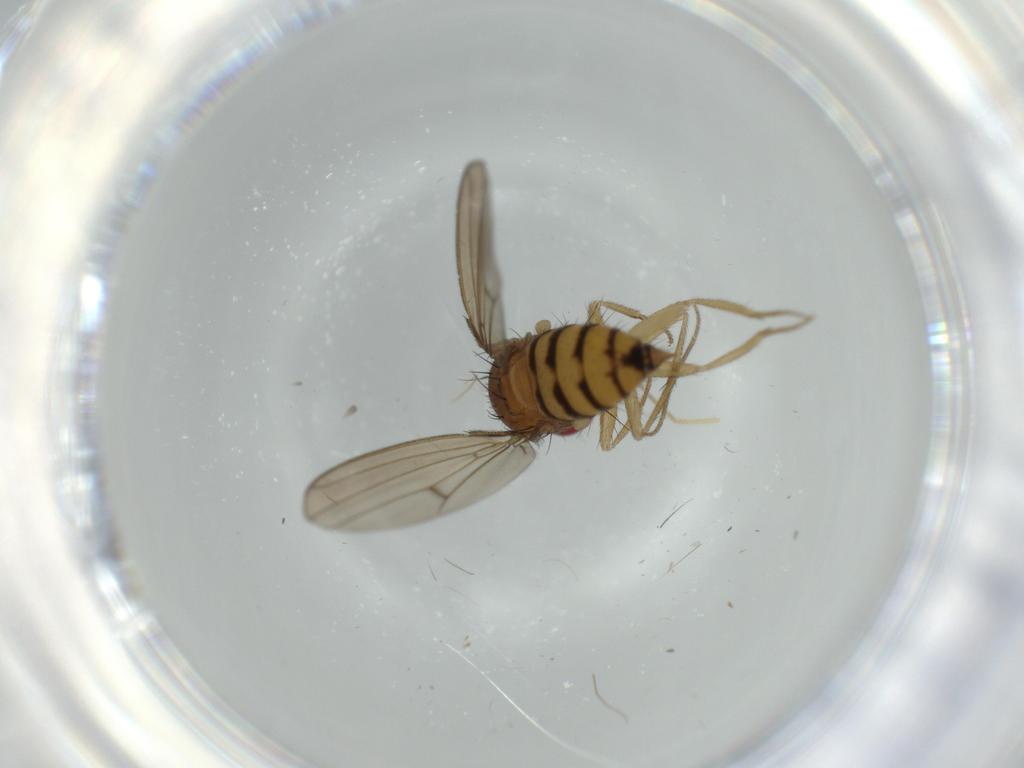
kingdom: Animalia
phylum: Arthropoda
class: Insecta
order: Diptera
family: Drosophilidae
